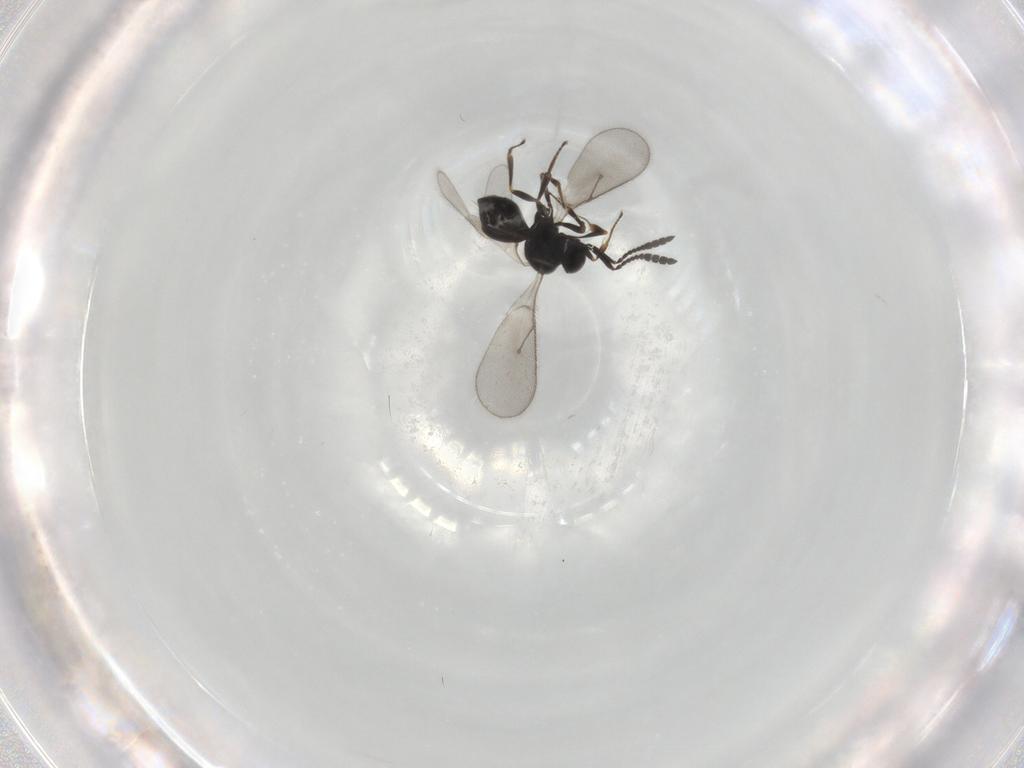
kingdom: Animalia
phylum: Arthropoda
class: Insecta
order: Hymenoptera
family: Scelionidae
